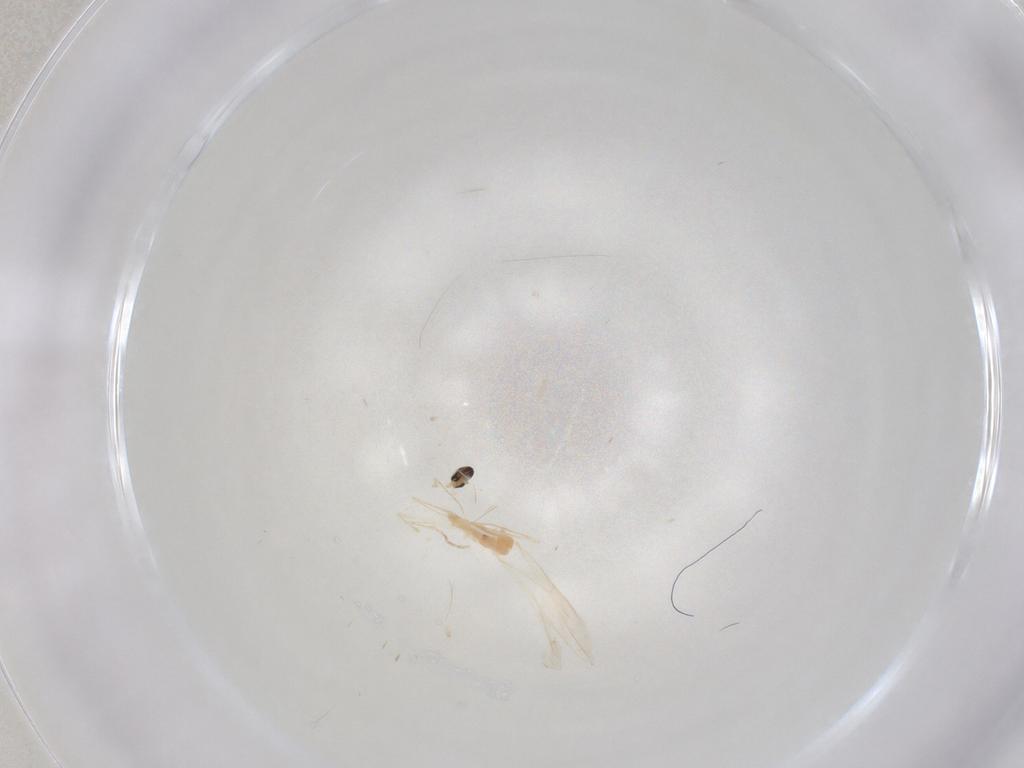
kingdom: Animalia
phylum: Arthropoda
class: Insecta
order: Diptera
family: Cecidomyiidae
